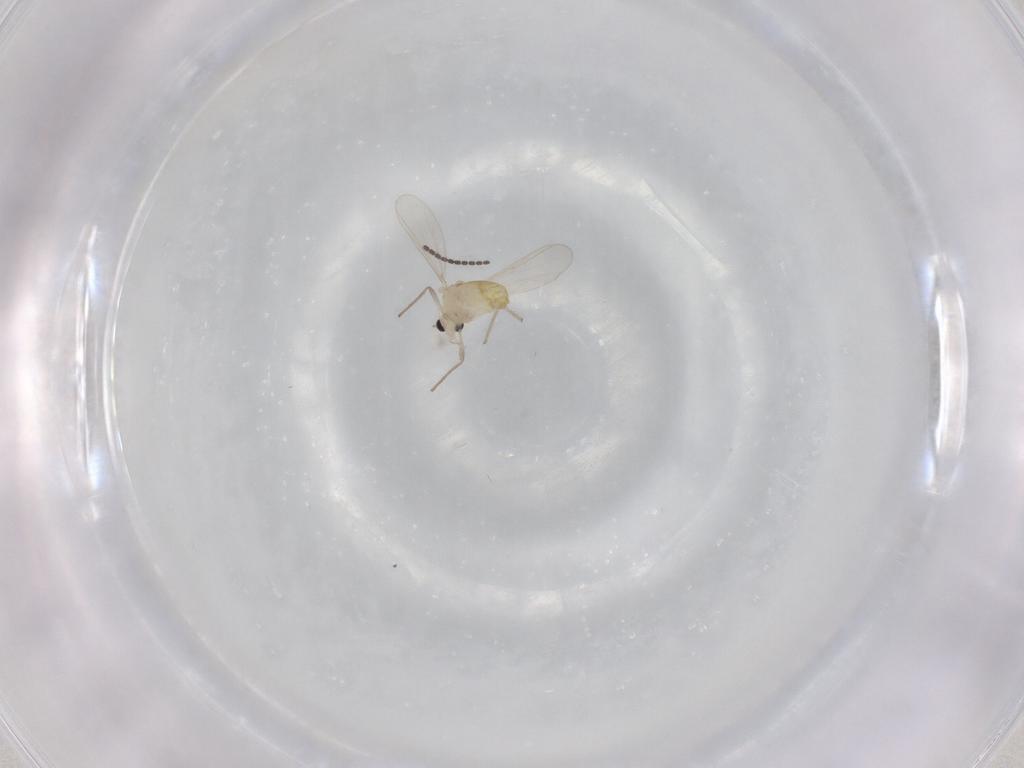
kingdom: Animalia
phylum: Arthropoda
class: Insecta
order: Diptera
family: Chironomidae
